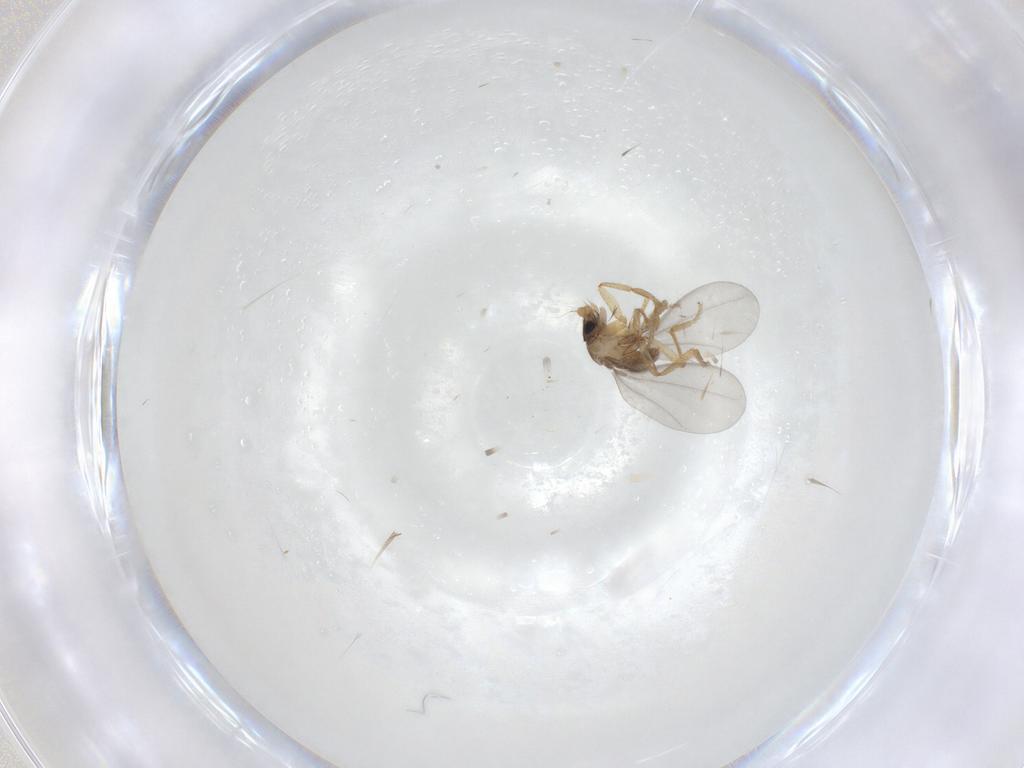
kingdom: Animalia
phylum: Arthropoda
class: Insecta
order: Diptera
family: Phoridae
